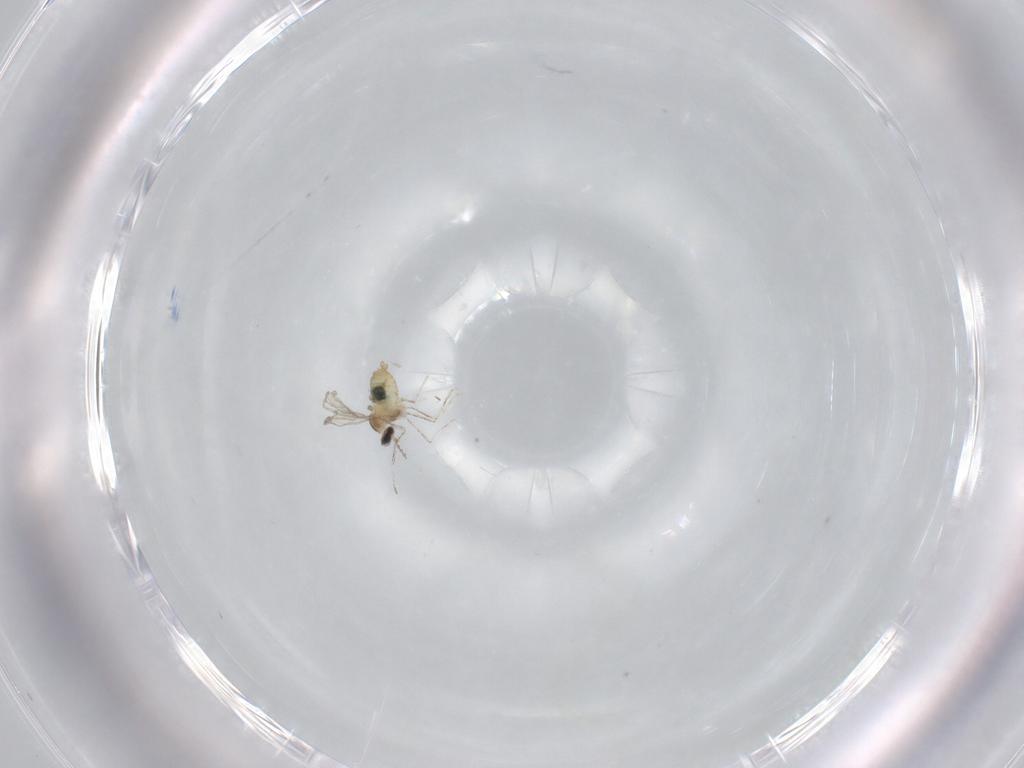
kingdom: Animalia
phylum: Arthropoda
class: Insecta
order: Diptera
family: Cecidomyiidae
